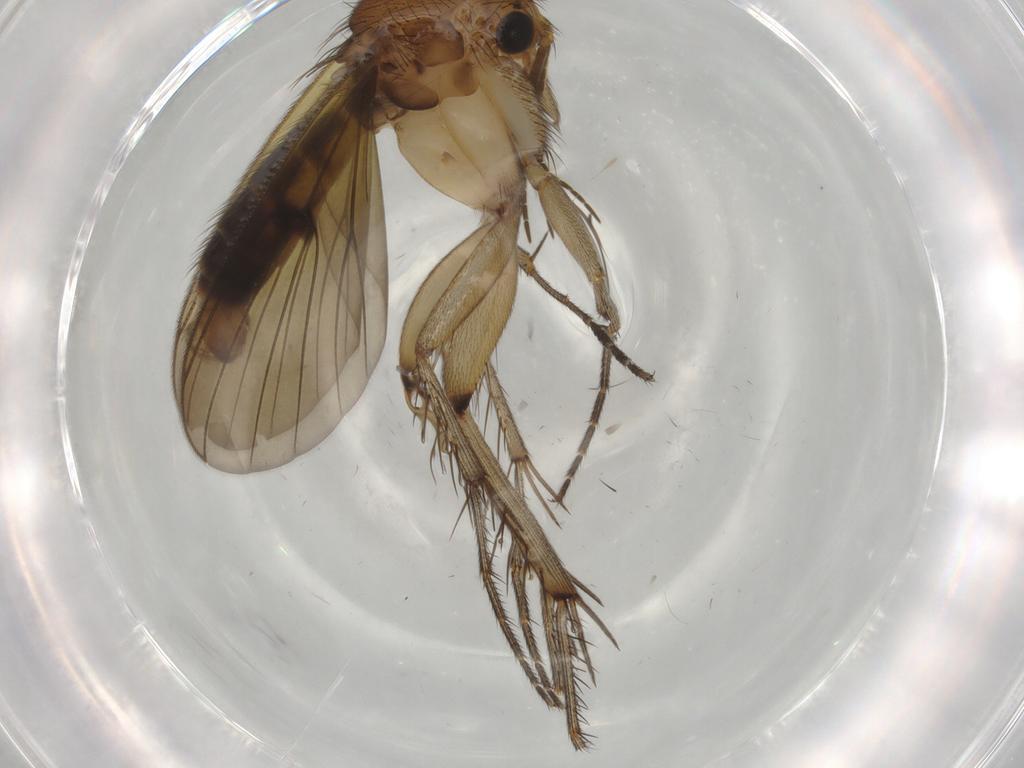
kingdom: Animalia
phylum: Arthropoda
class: Insecta
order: Diptera
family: Chironomidae
